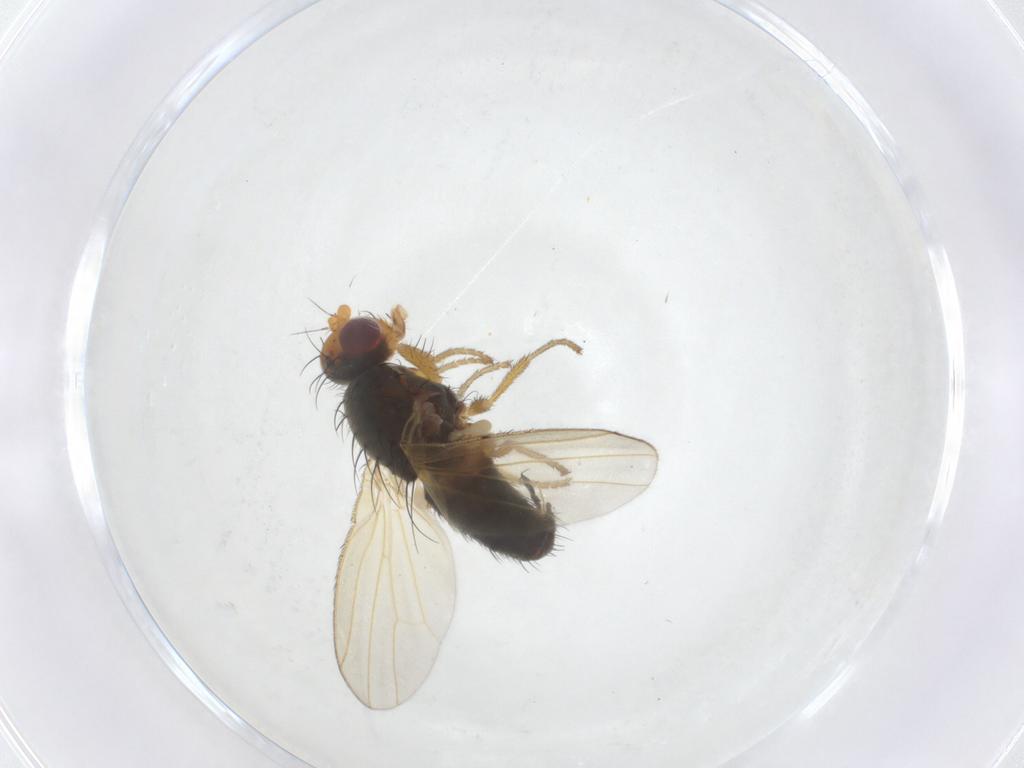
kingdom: Animalia
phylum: Arthropoda
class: Insecta
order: Diptera
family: Heleomyzidae
